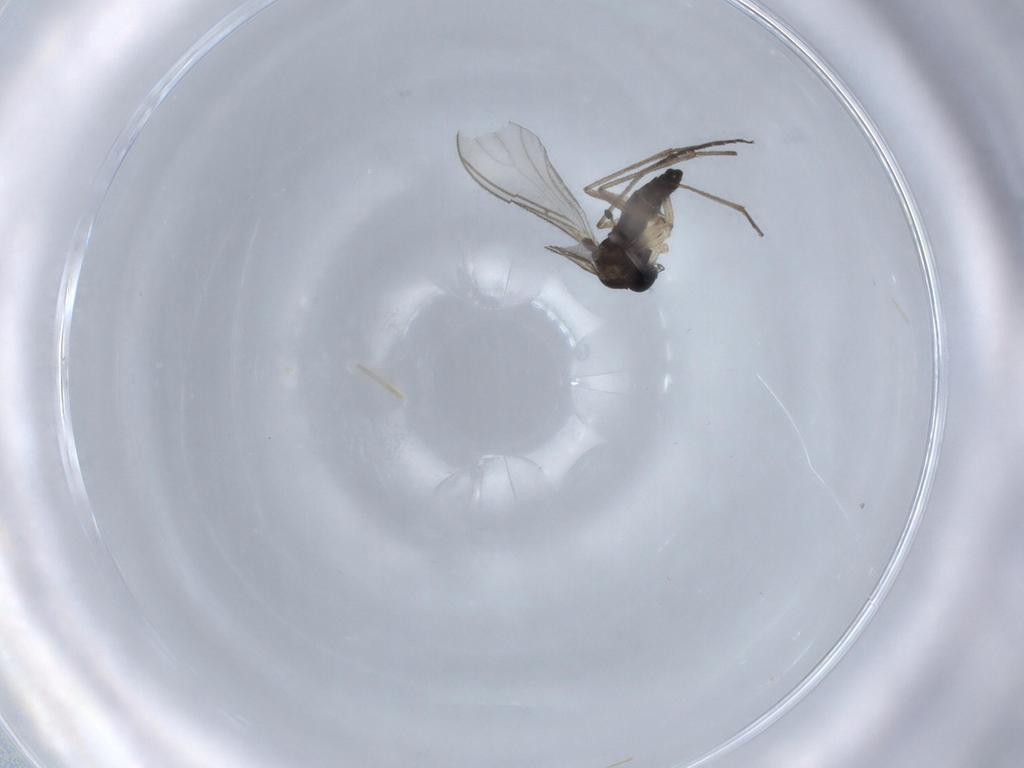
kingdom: Animalia
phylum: Arthropoda
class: Insecta
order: Diptera
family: Sciaridae
